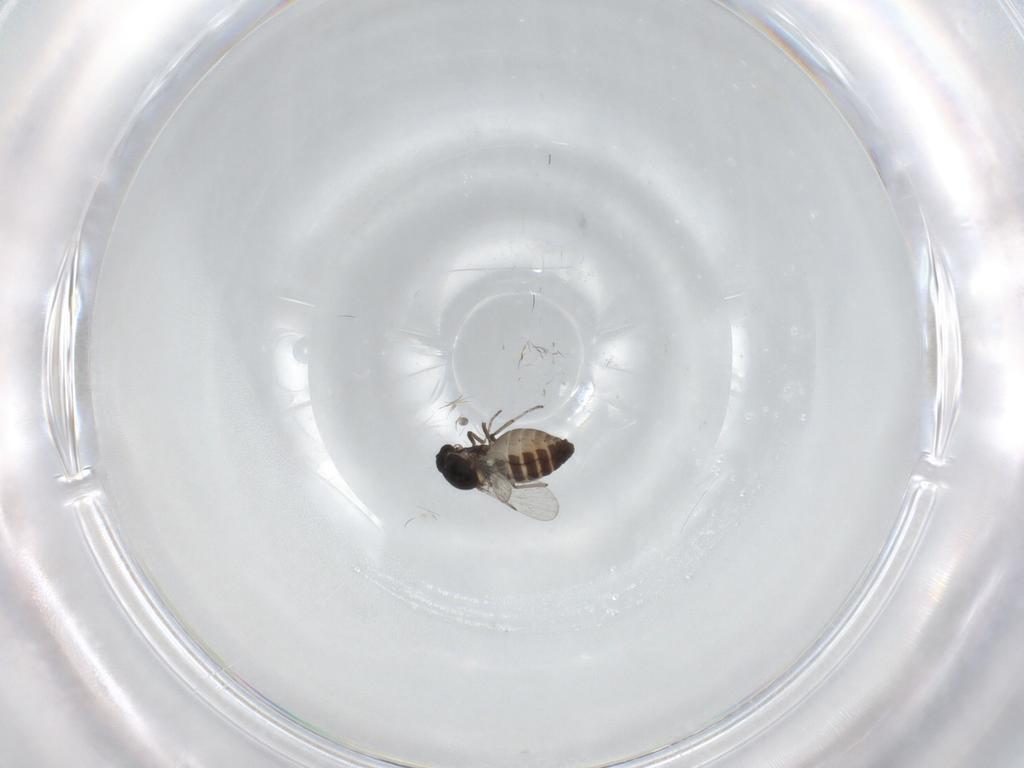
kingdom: Animalia
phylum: Arthropoda
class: Insecta
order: Diptera
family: Ceratopogonidae
